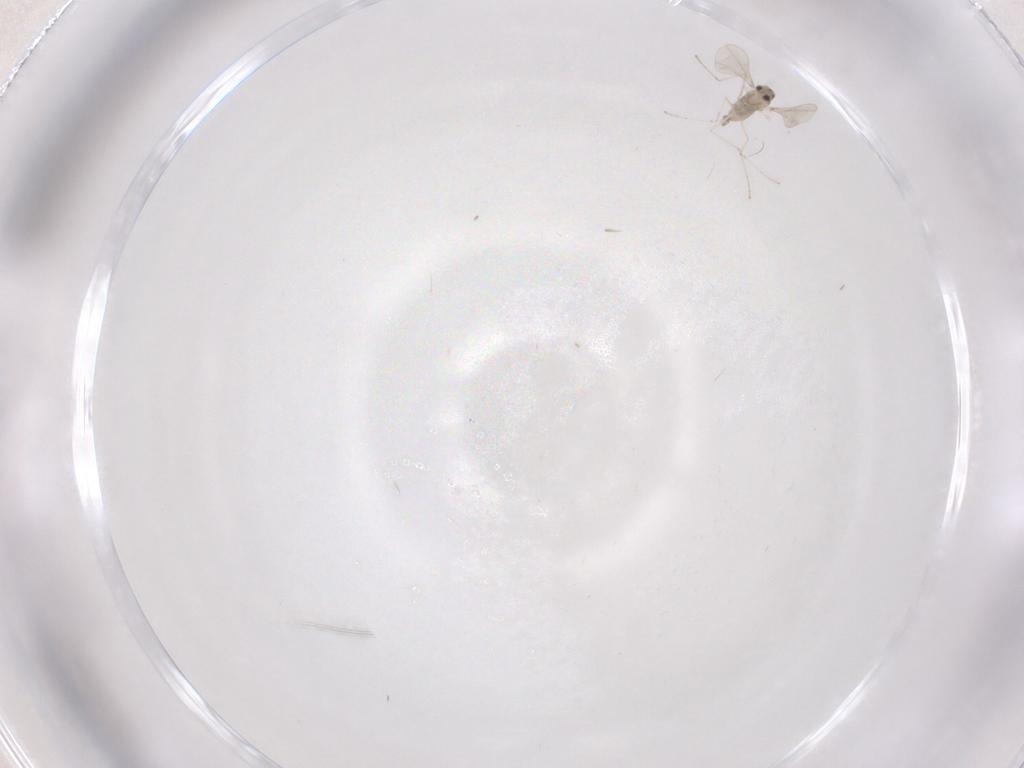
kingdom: Animalia
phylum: Arthropoda
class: Insecta
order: Diptera
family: Cecidomyiidae
